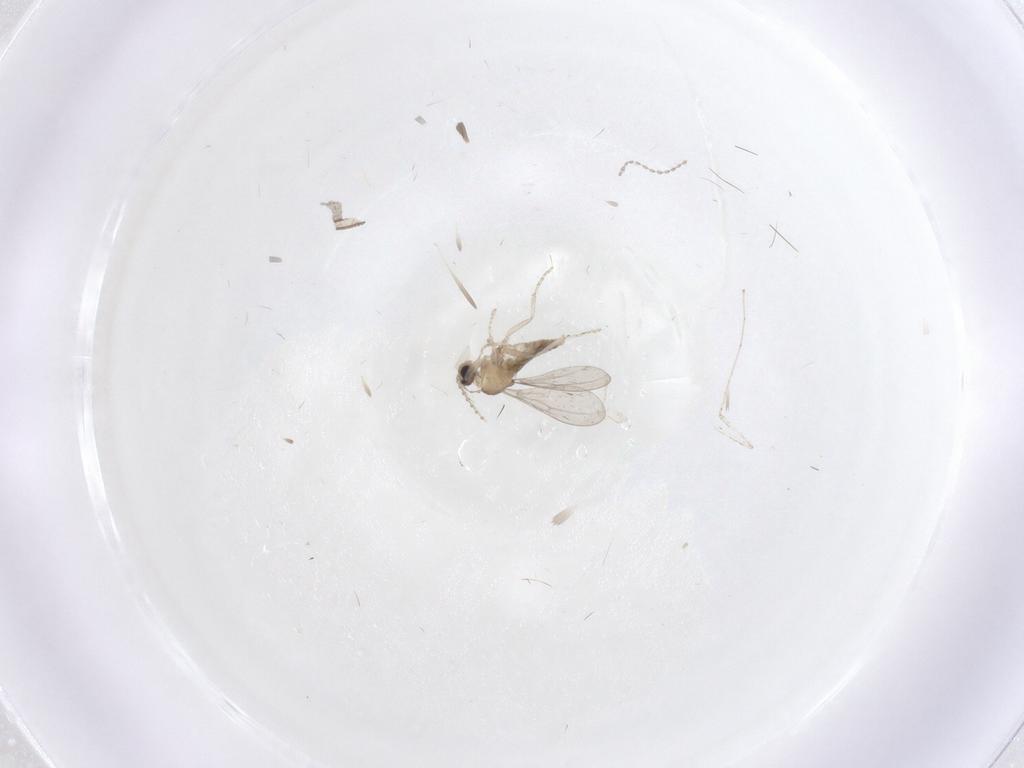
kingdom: Animalia
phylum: Arthropoda
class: Insecta
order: Diptera
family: Cecidomyiidae
